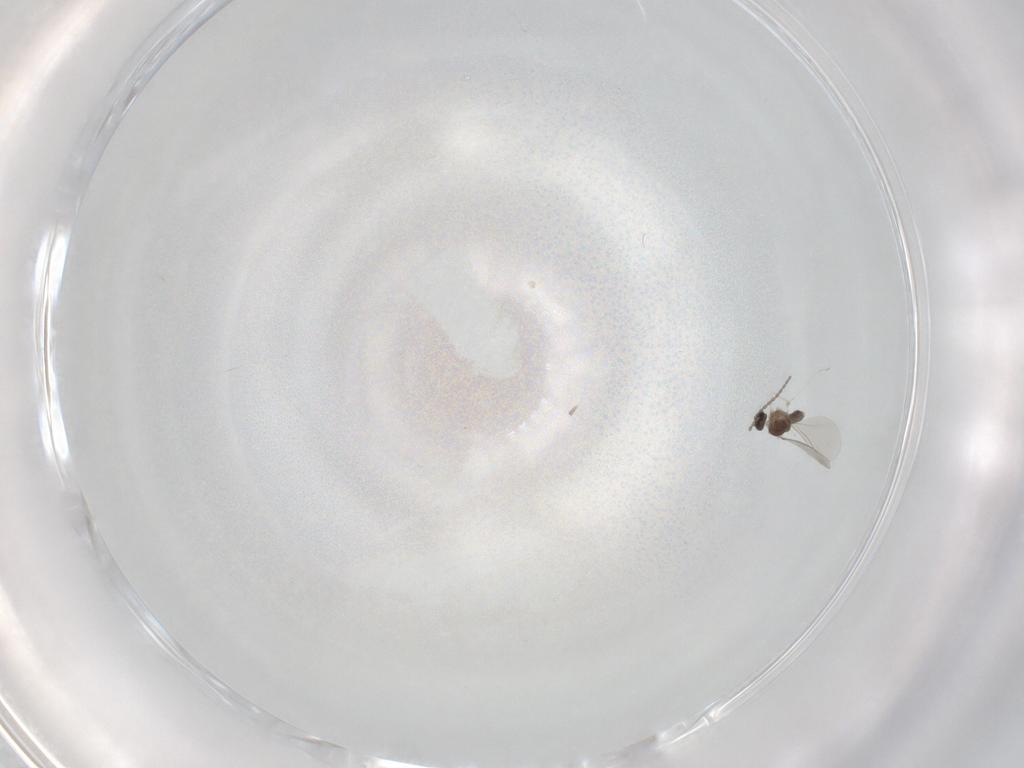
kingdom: Animalia
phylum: Arthropoda
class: Insecta
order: Diptera
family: Cecidomyiidae
